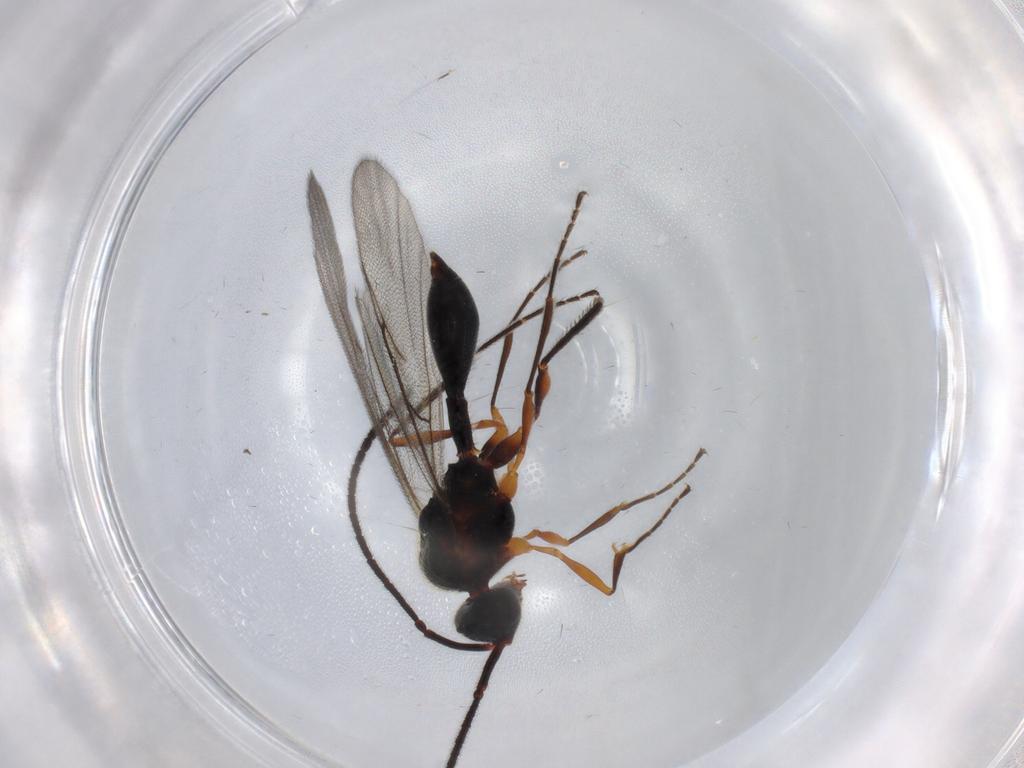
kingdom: Animalia
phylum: Arthropoda
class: Insecta
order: Hymenoptera
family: Diapriidae
